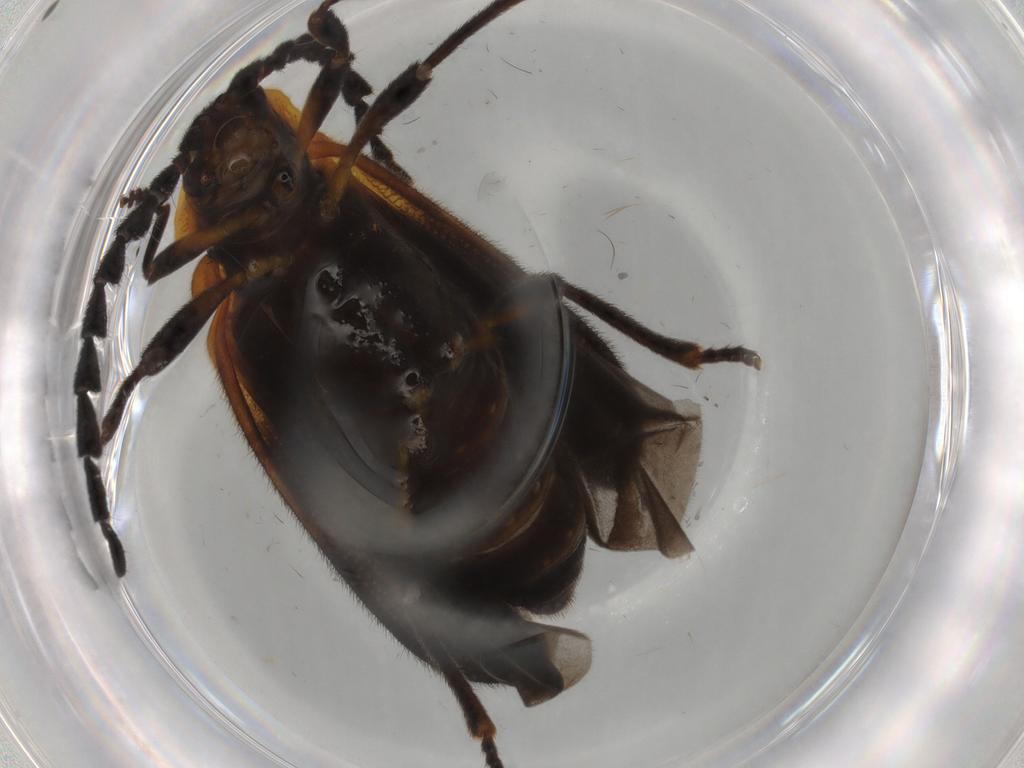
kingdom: Animalia
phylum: Arthropoda
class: Insecta
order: Coleoptera
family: Lycidae
